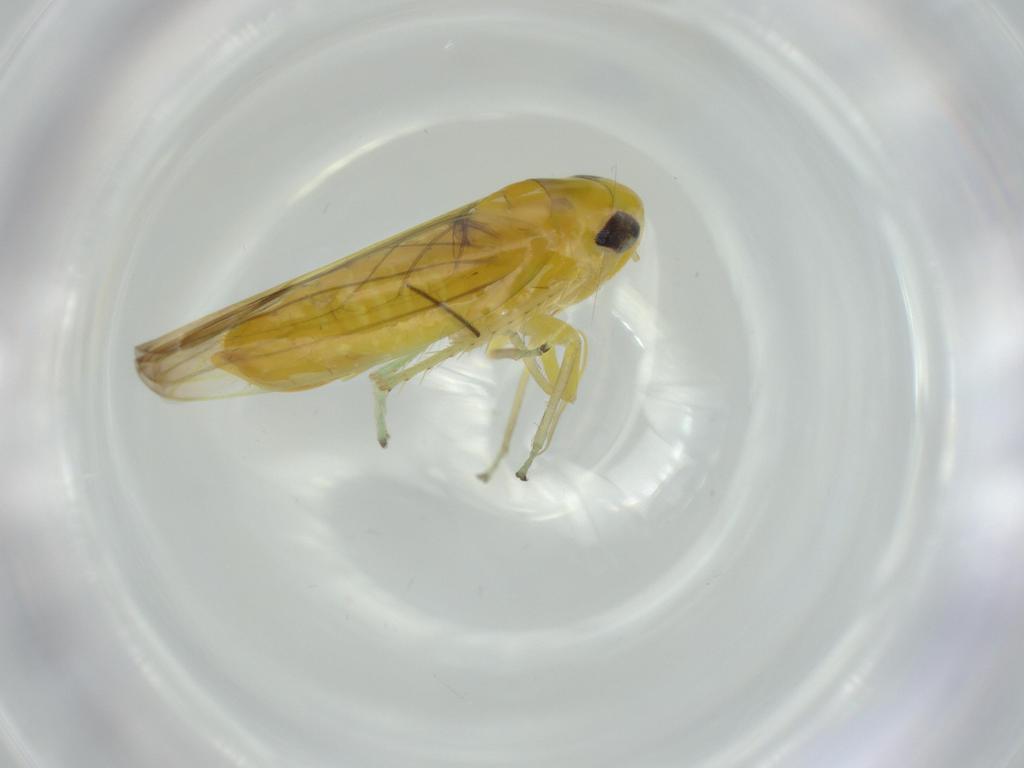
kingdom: Animalia
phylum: Arthropoda
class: Insecta
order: Hemiptera
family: Cicadellidae
